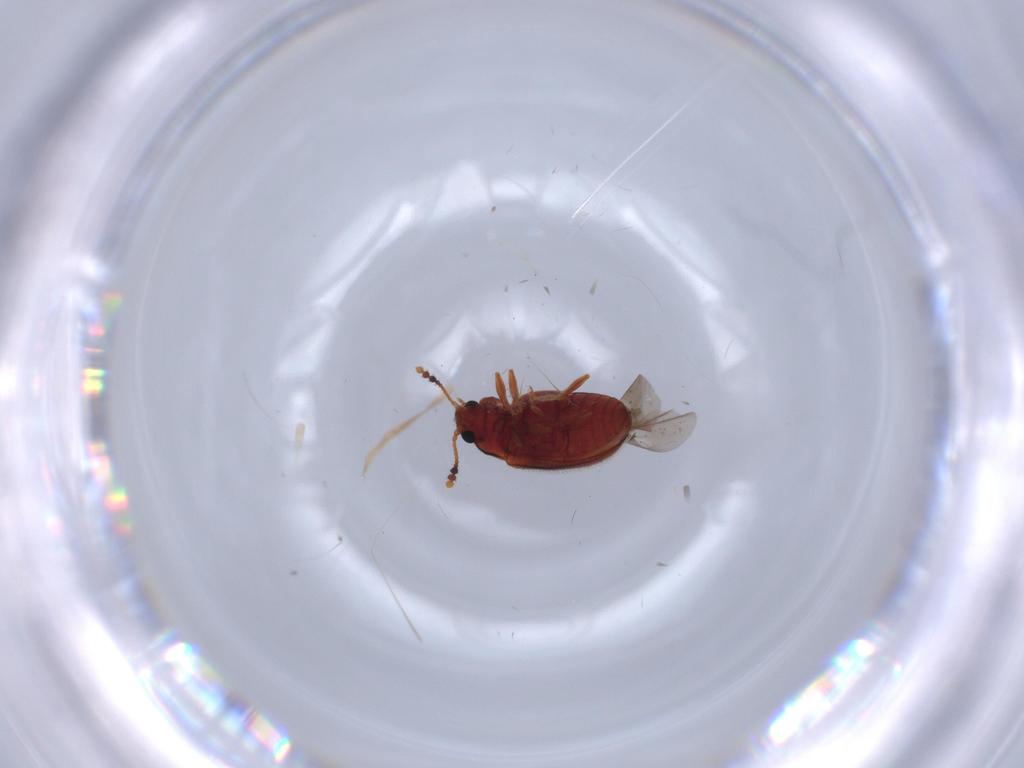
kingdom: Animalia
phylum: Arthropoda
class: Insecta
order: Coleoptera
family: Erotylidae
